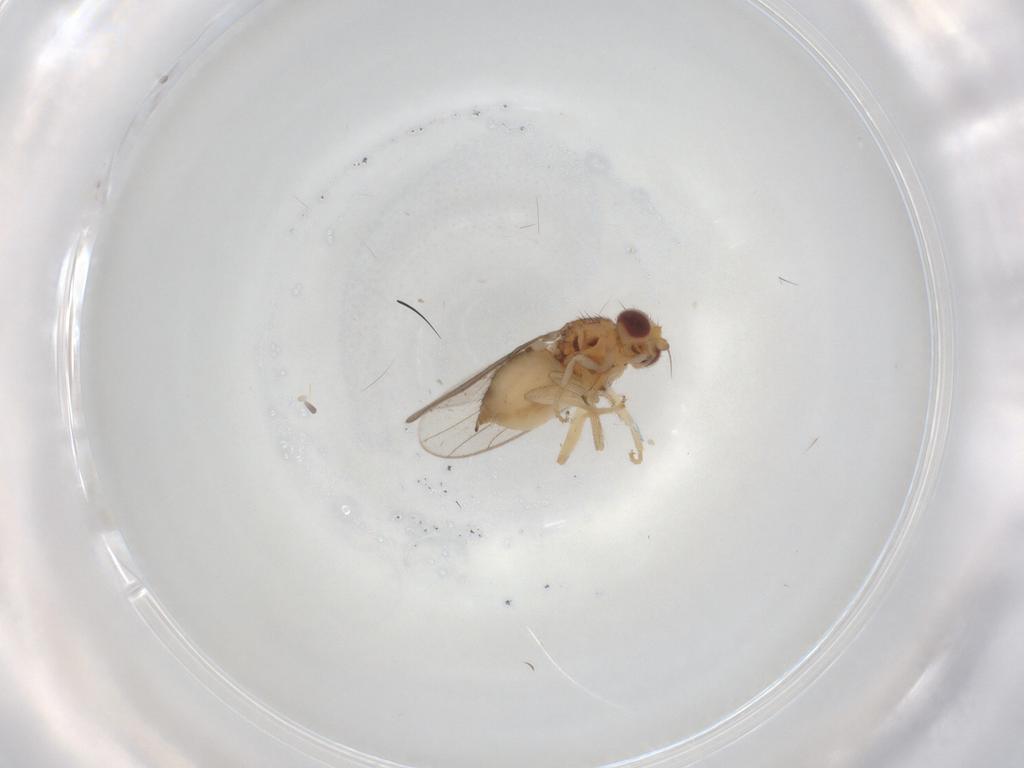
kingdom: Animalia
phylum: Arthropoda
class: Insecta
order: Diptera
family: Chloropidae
